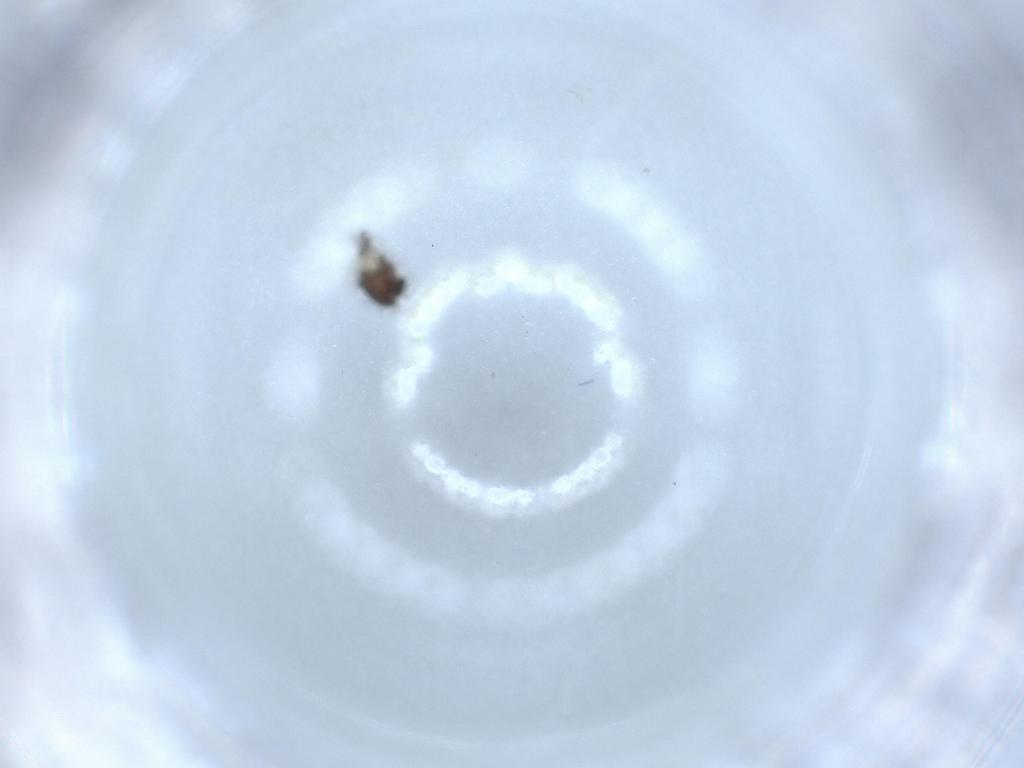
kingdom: Animalia
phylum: Arthropoda
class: Insecta
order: Diptera
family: Chironomidae
